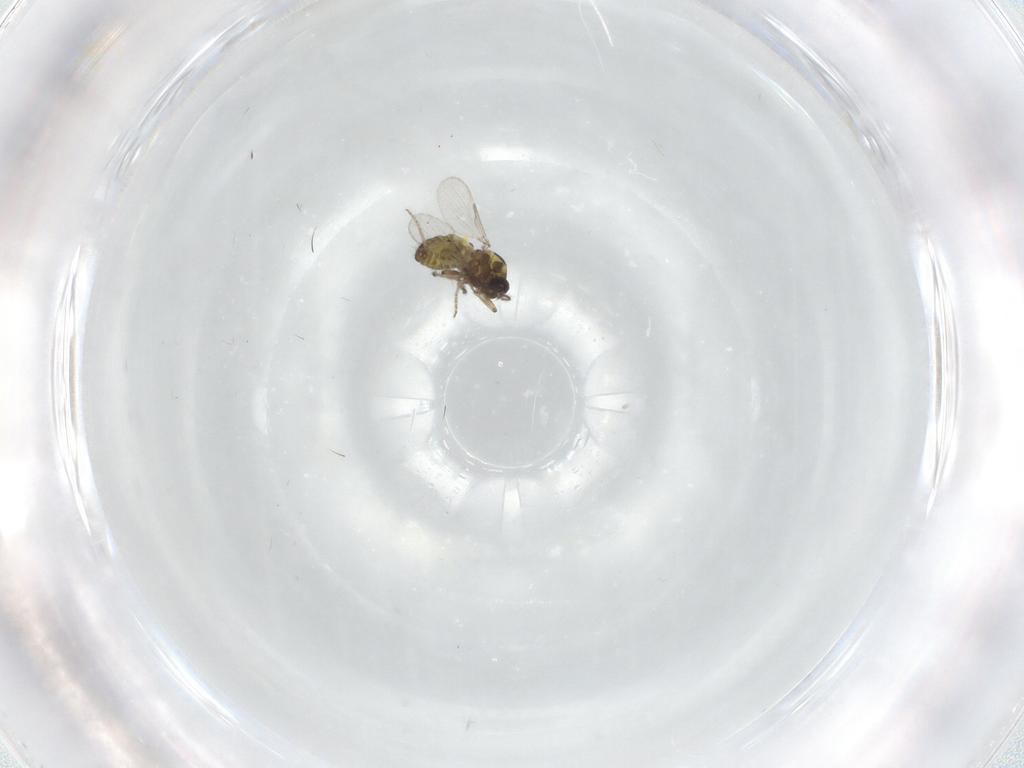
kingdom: Animalia
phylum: Arthropoda
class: Insecta
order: Diptera
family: Ceratopogonidae
